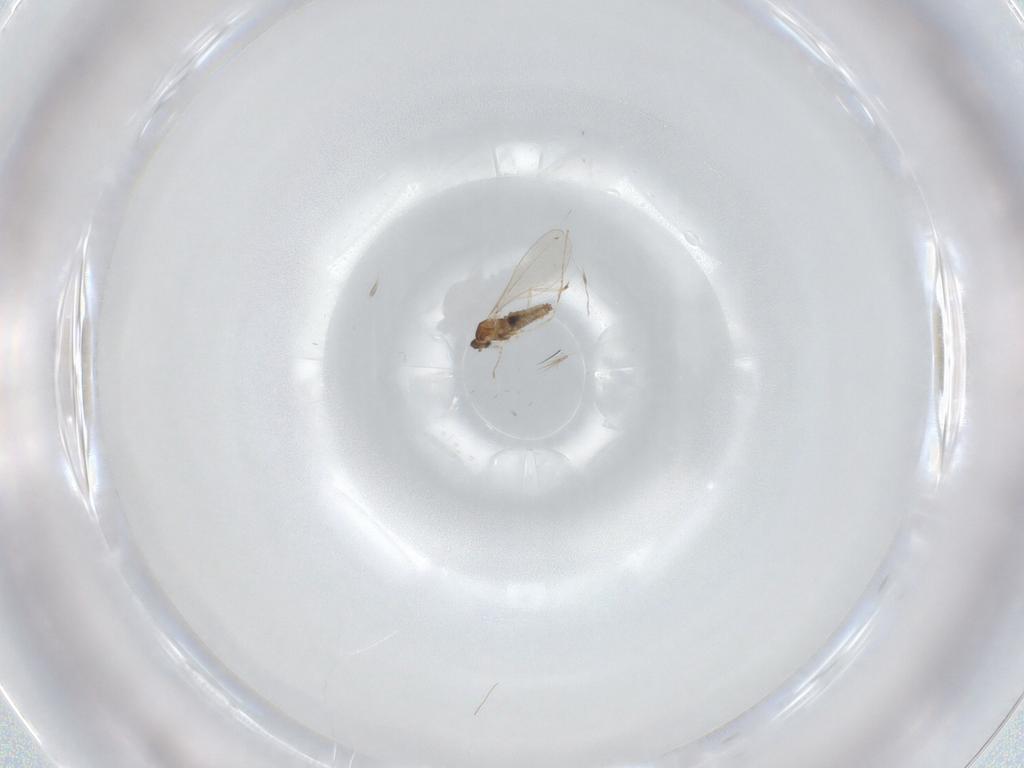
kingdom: Animalia
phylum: Arthropoda
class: Insecta
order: Diptera
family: Cecidomyiidae
